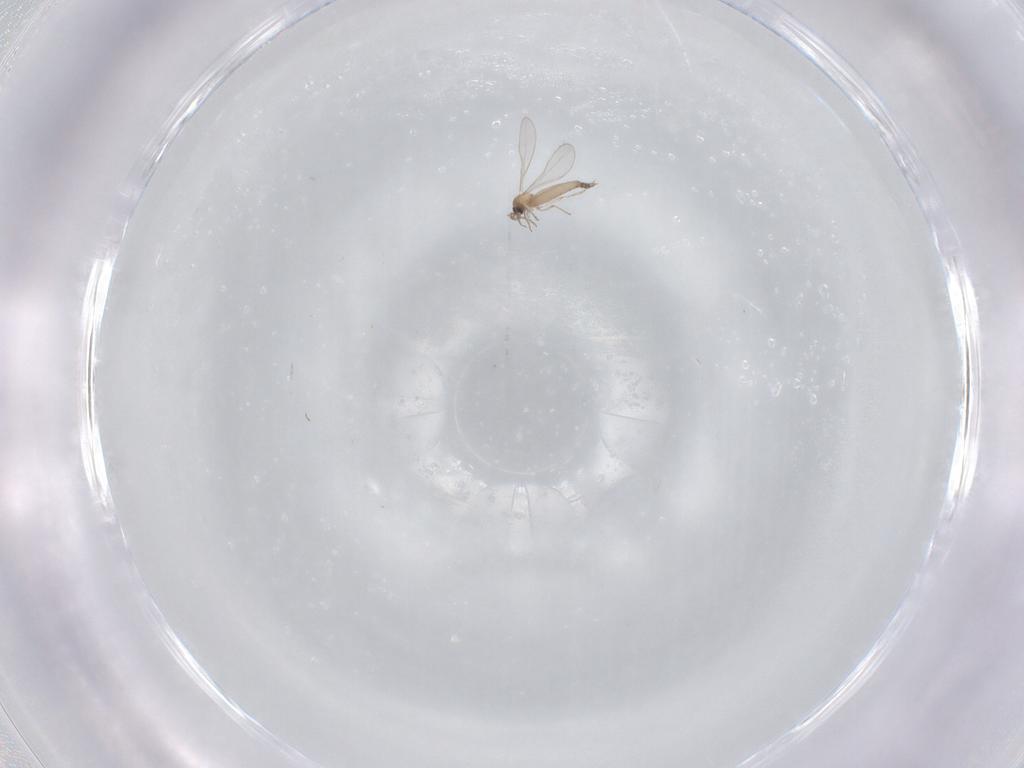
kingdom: Animalia
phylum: Arthropoda
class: Insecta
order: Diptera
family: Cecidomyiidae
